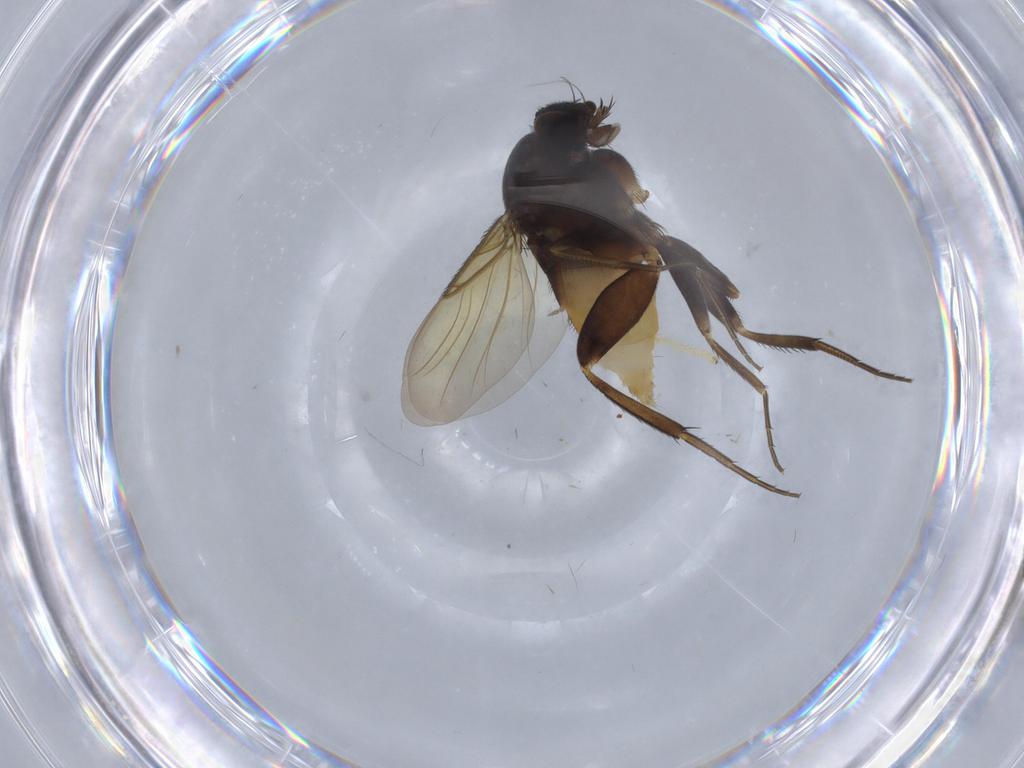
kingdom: Animalia
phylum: Arthropoda
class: Insecta
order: Diptera
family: Phoridae
